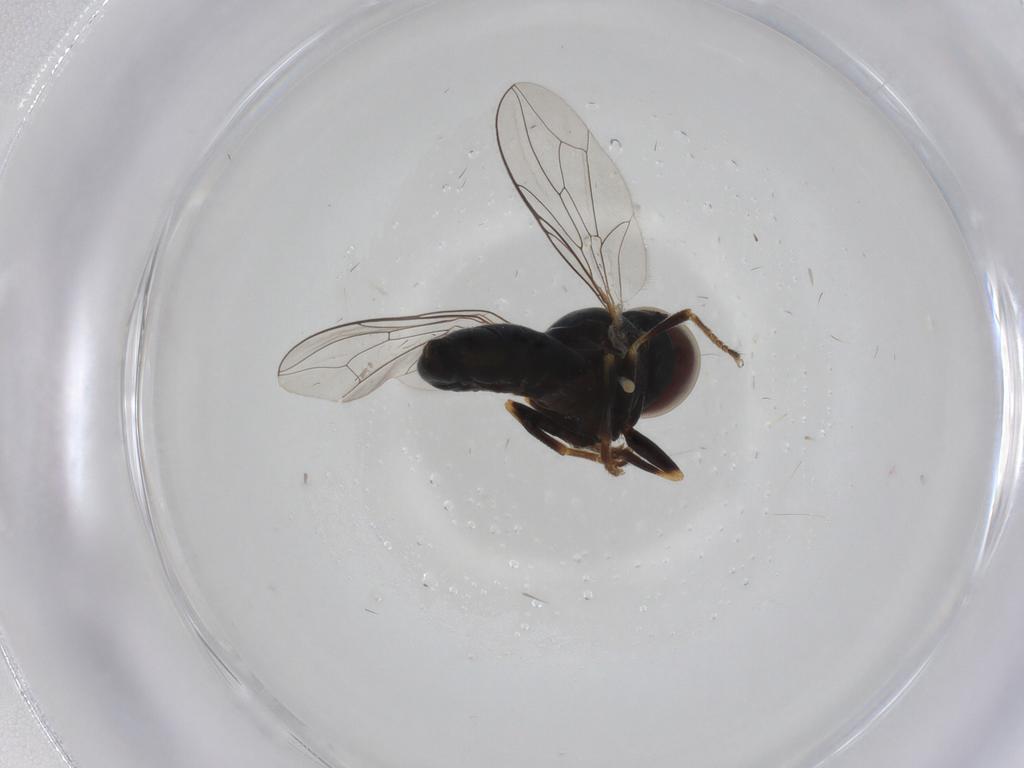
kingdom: Animalia
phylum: Arthropoda
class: Insecta
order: Diptera
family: Pipunculidae
